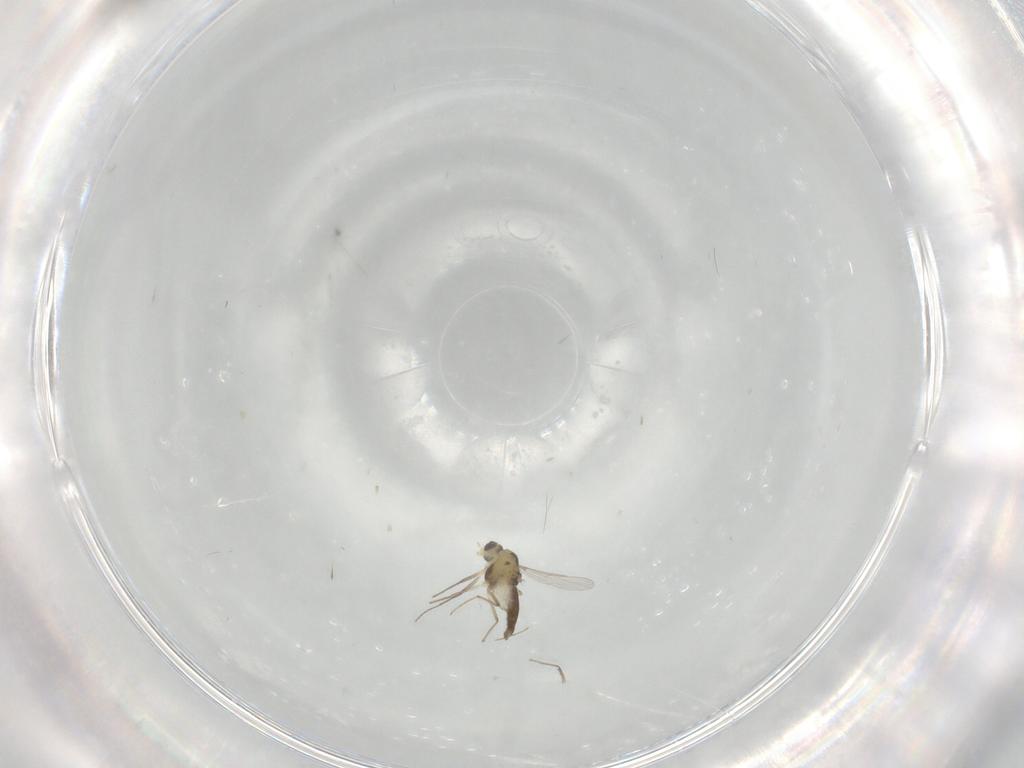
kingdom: Animalia
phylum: Arthropoda
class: Insecta
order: Diptera
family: Chironomidae
